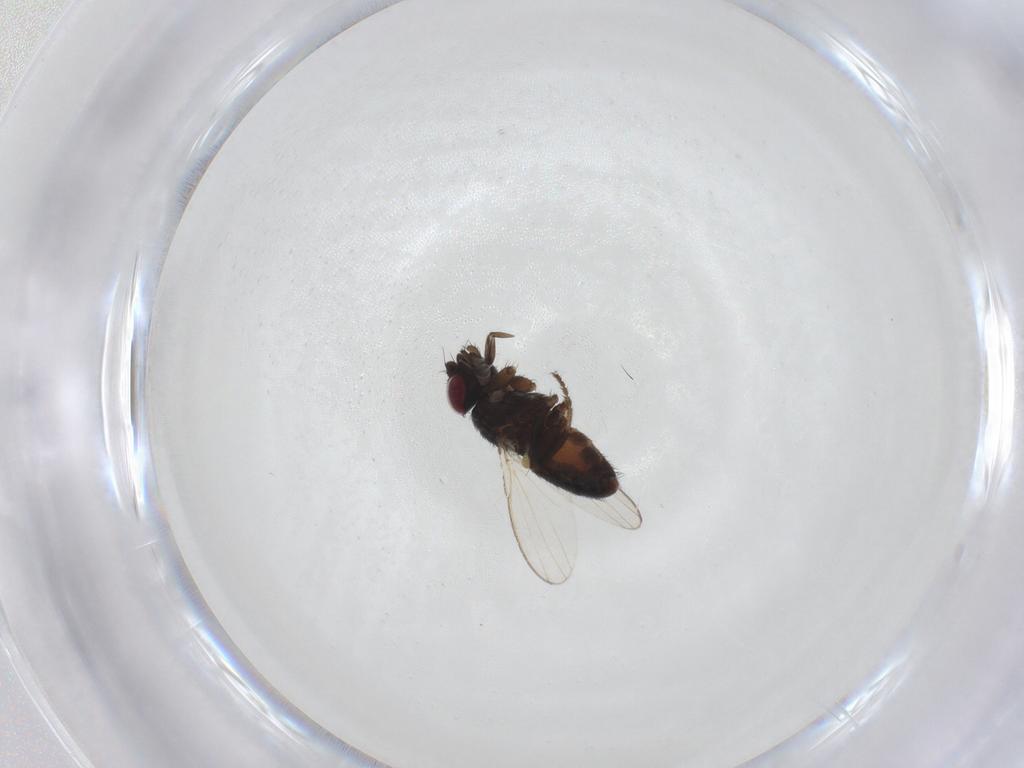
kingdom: Animalia
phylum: Arthropoda
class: Insecta
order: Diptera
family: Milichiidae
